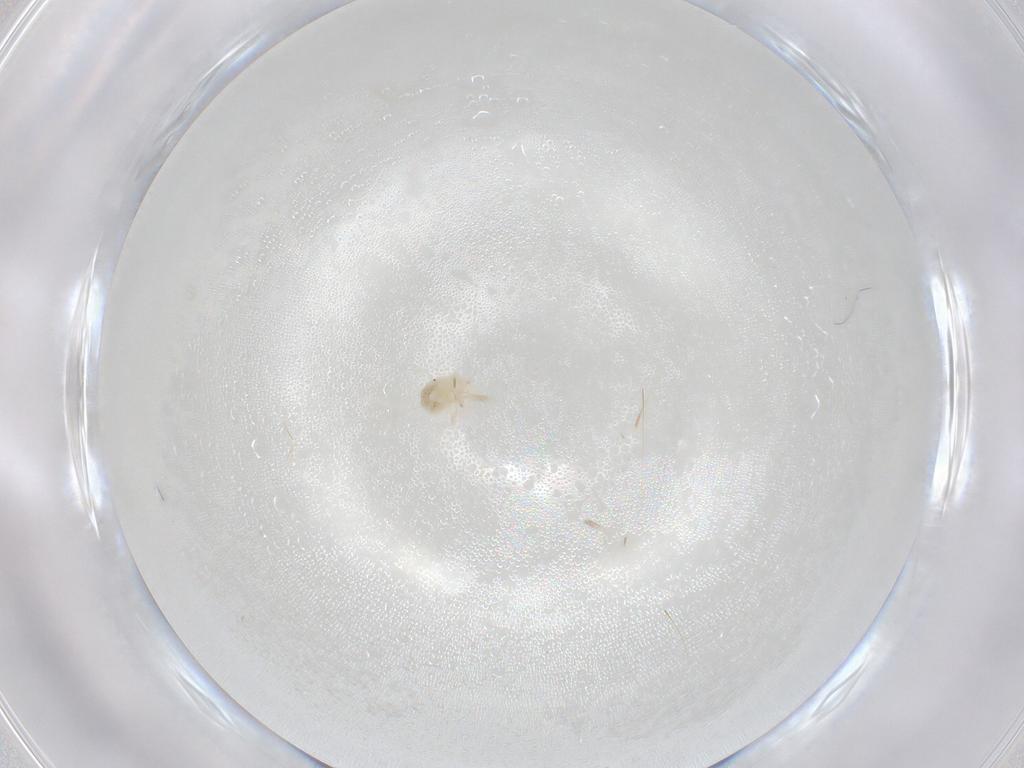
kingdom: Animalia
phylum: Arthropoda
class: Arachnida
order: Trombidiformes
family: Anystidae
